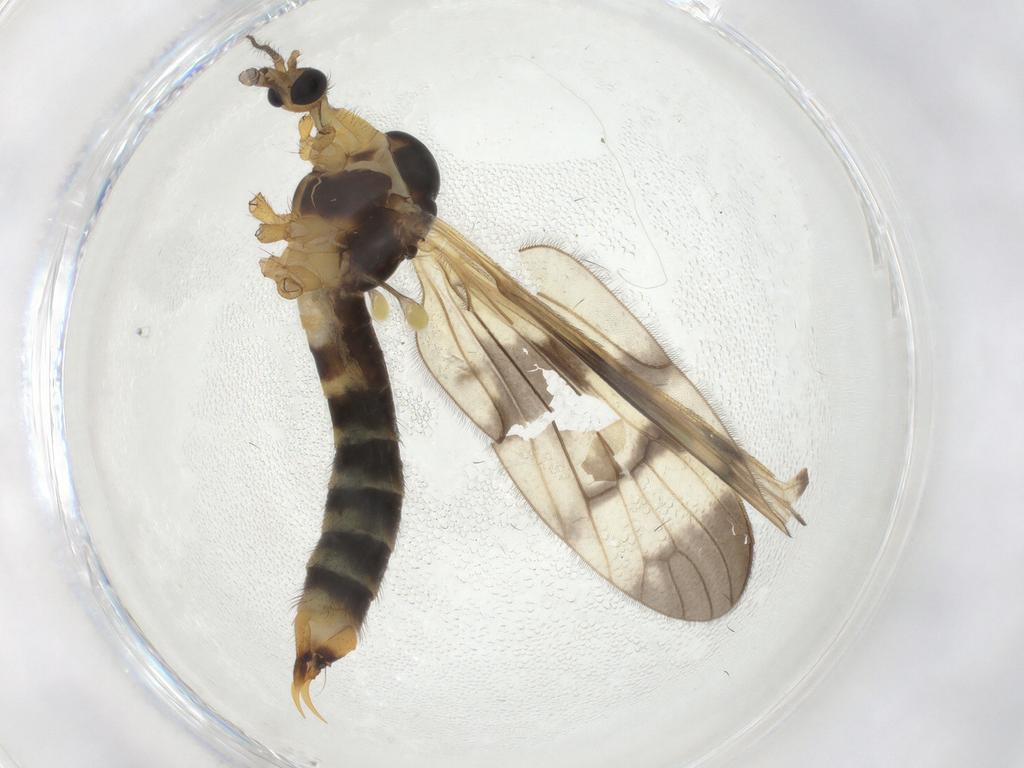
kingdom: Animalia
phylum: Arthropoda
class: Insecta
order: Diptera
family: Limoniidae
